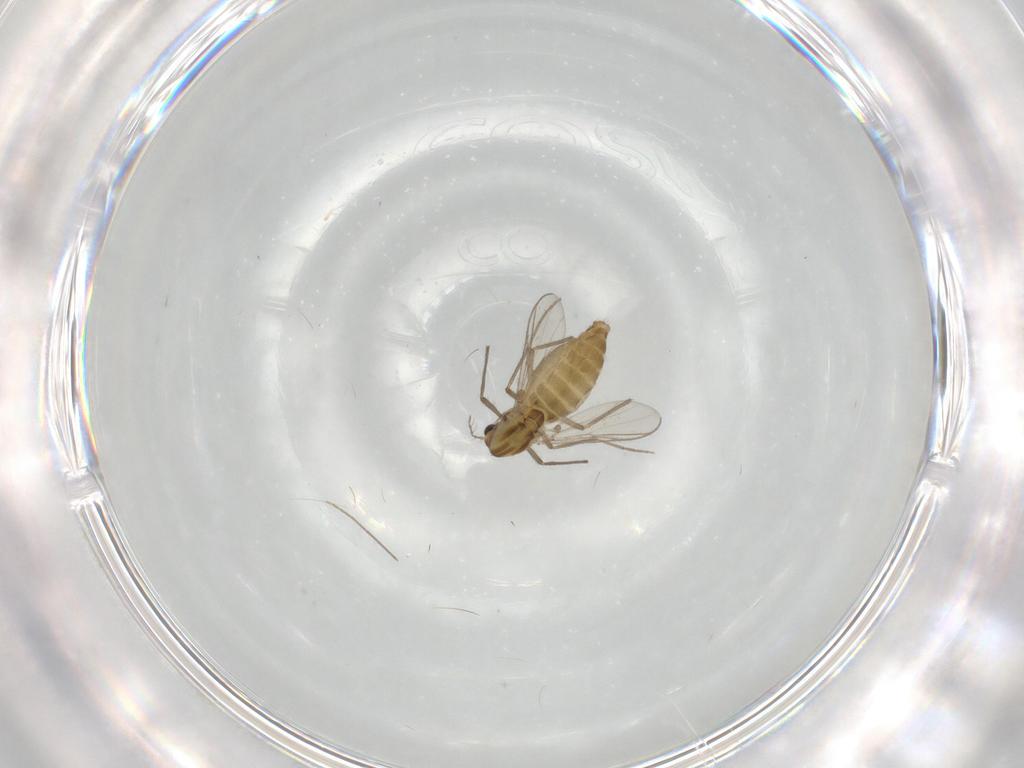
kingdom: Animalia
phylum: Arthropoda
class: Insecta
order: Diptera
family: Chironomidae
